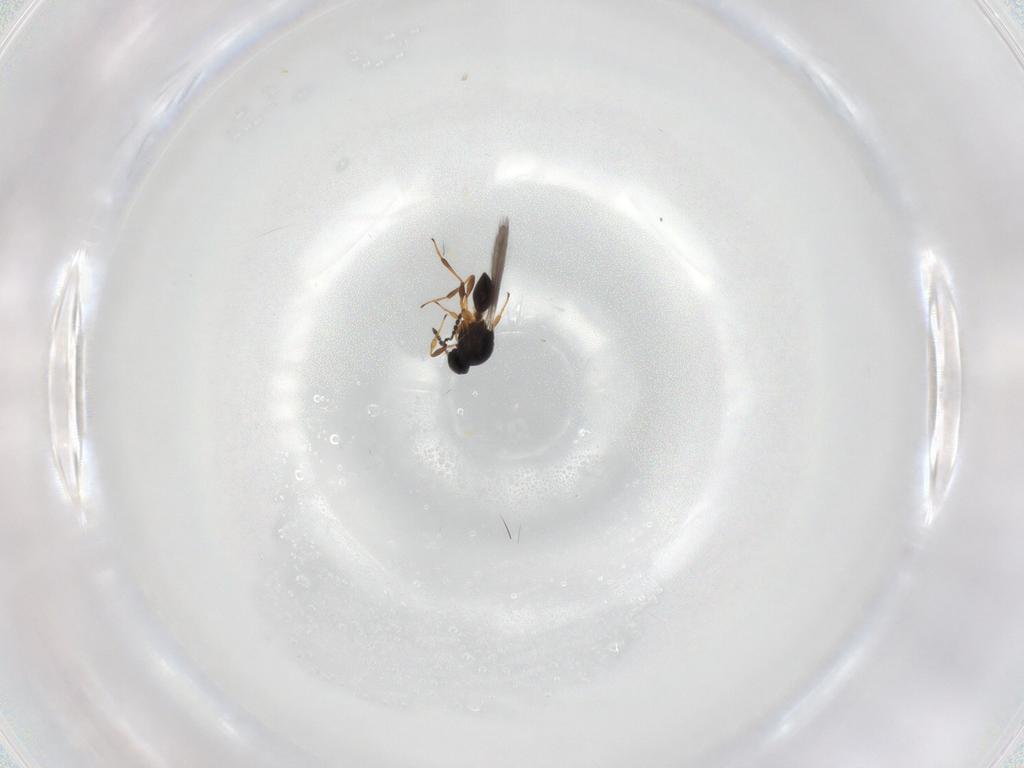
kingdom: Animalia
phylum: Arthropoda
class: Insecta
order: Hymenoptera
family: Platygastridae
